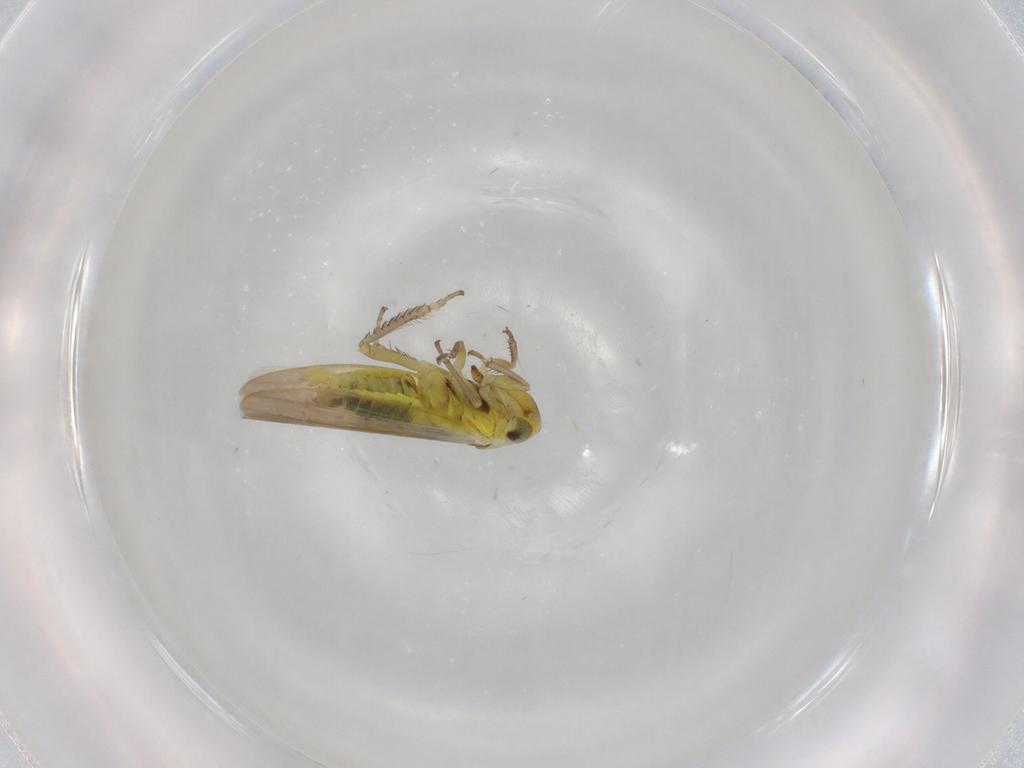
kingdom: Animalia
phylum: Arthropoda
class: Insecta
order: Hemiptera
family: Cicadellidae
